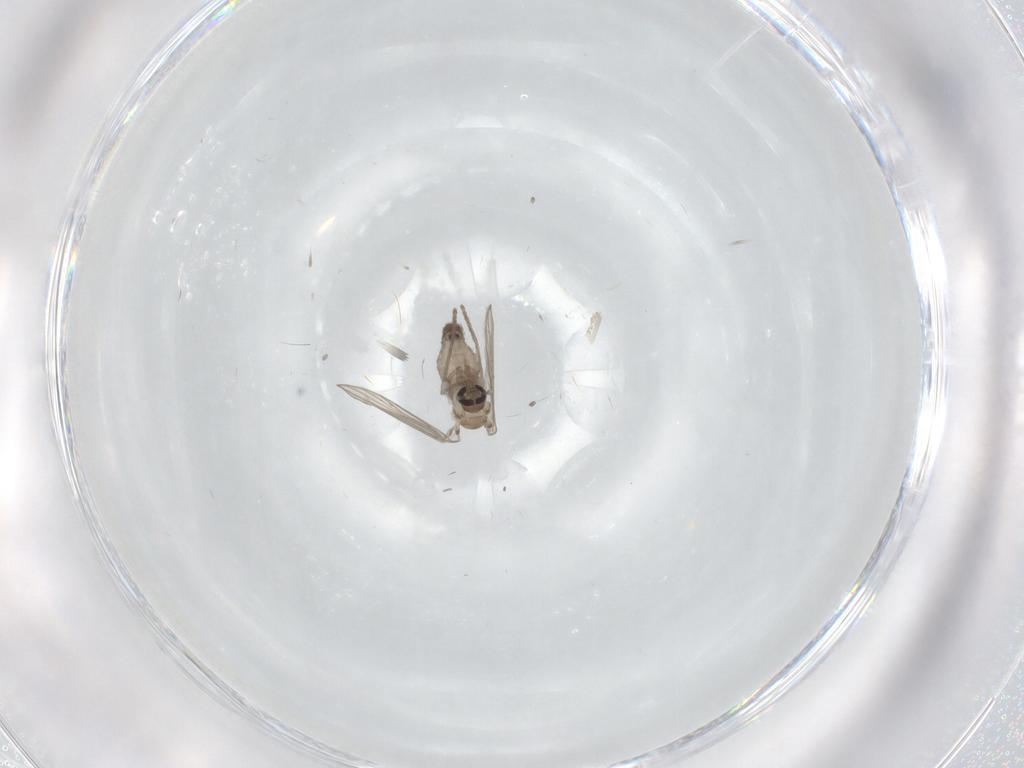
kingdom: Animalia
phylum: Arthropoda
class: Insecta
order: Diptera
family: Psychodidae
